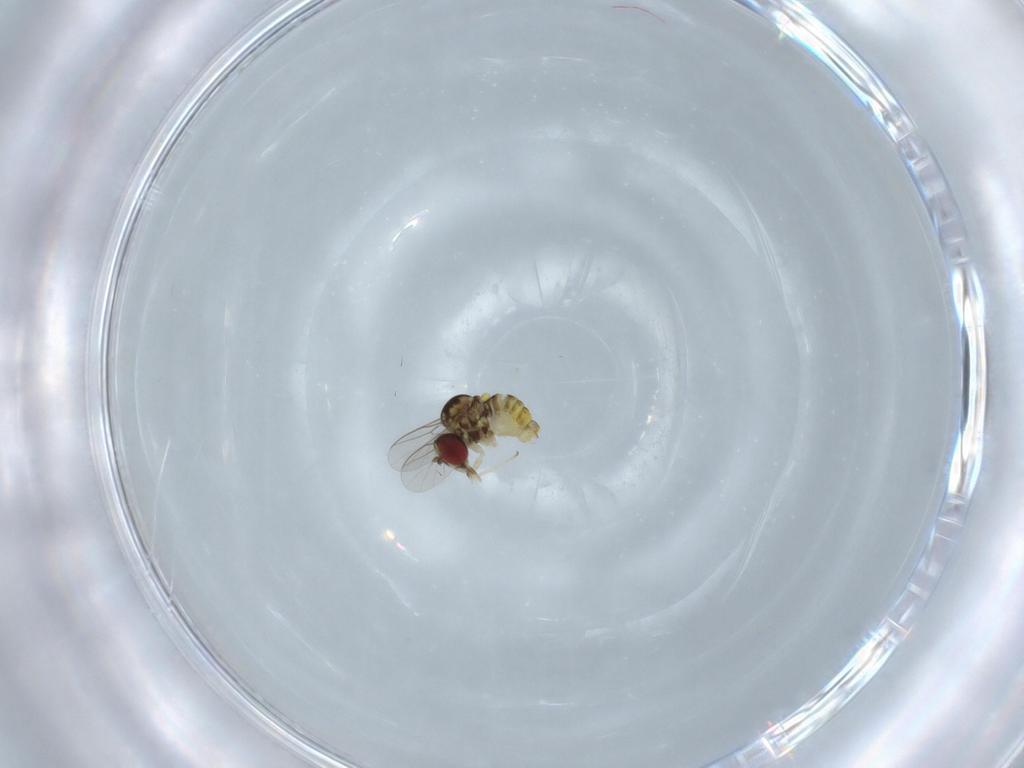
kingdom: Animalia
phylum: Arthropoda
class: Insecta
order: Diptera
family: Bombyliidae
